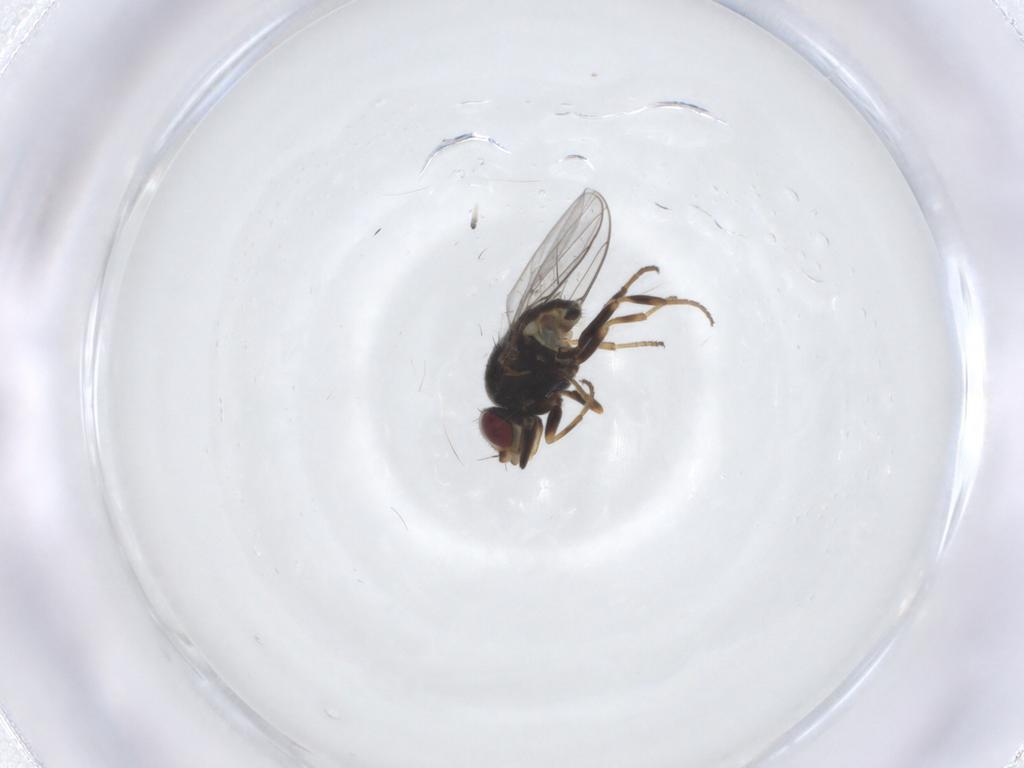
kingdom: Animalia
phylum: Arthropoda
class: Insecta
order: Diptera
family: Chloropidae
